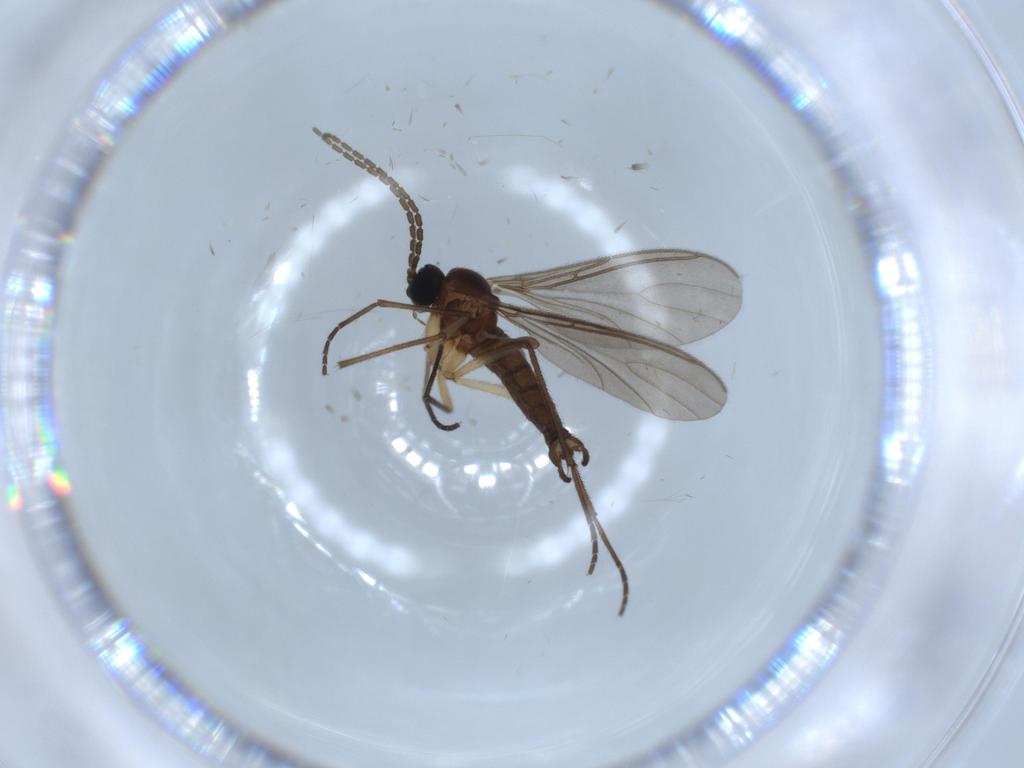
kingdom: Animalia
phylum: Arthropoda
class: Insecta
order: Diptera
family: Sciaridae
